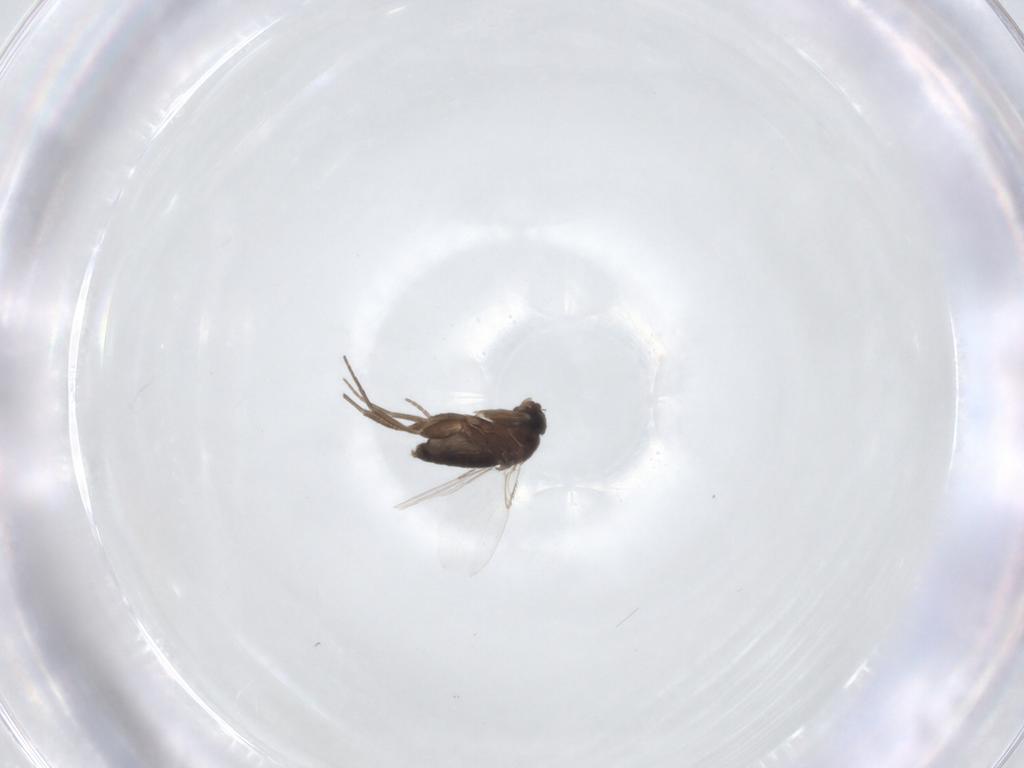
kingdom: Animalia
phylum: Arthropoda
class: Insecta
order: Diptera
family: Phoridae
